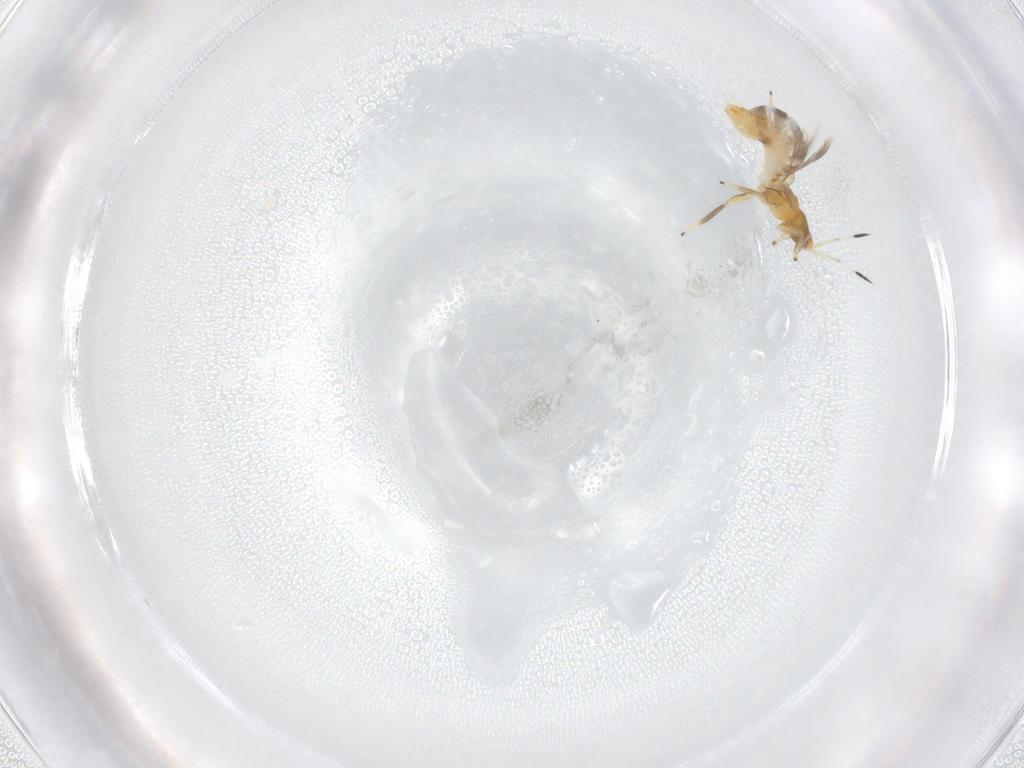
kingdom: Animalia
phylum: Arthropoda
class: Insecta
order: Thysanoptera
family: Aeolothripidae
